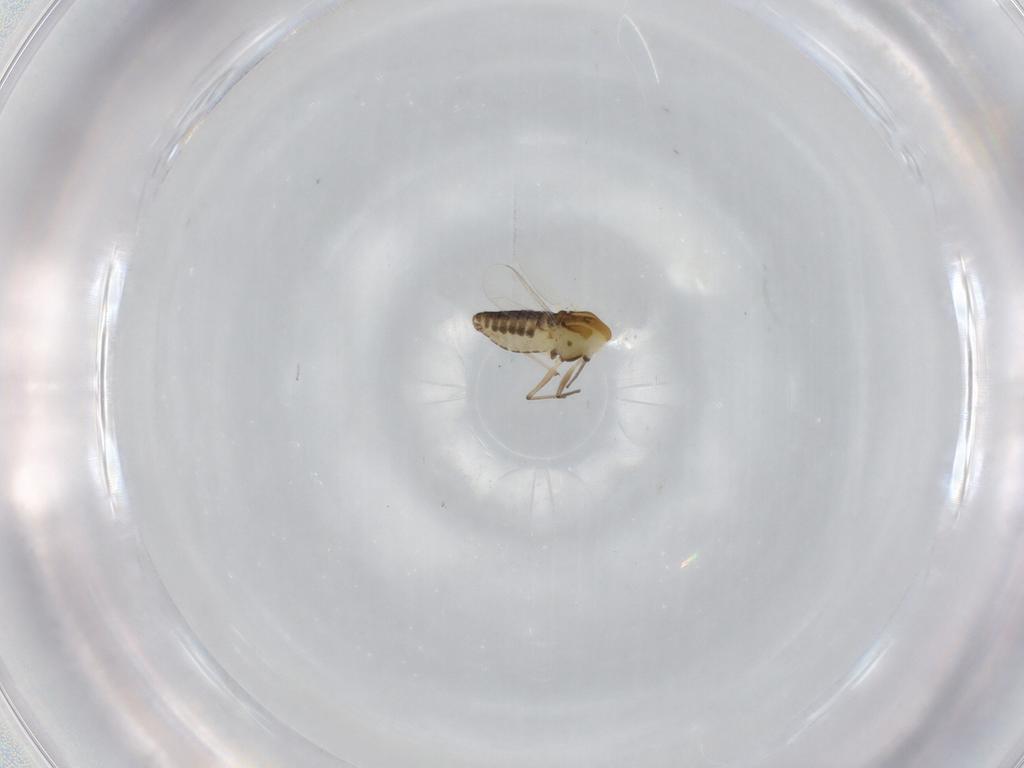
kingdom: Animalia
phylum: Arthropoda
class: Insecta
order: Diptera
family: Chironomidae
